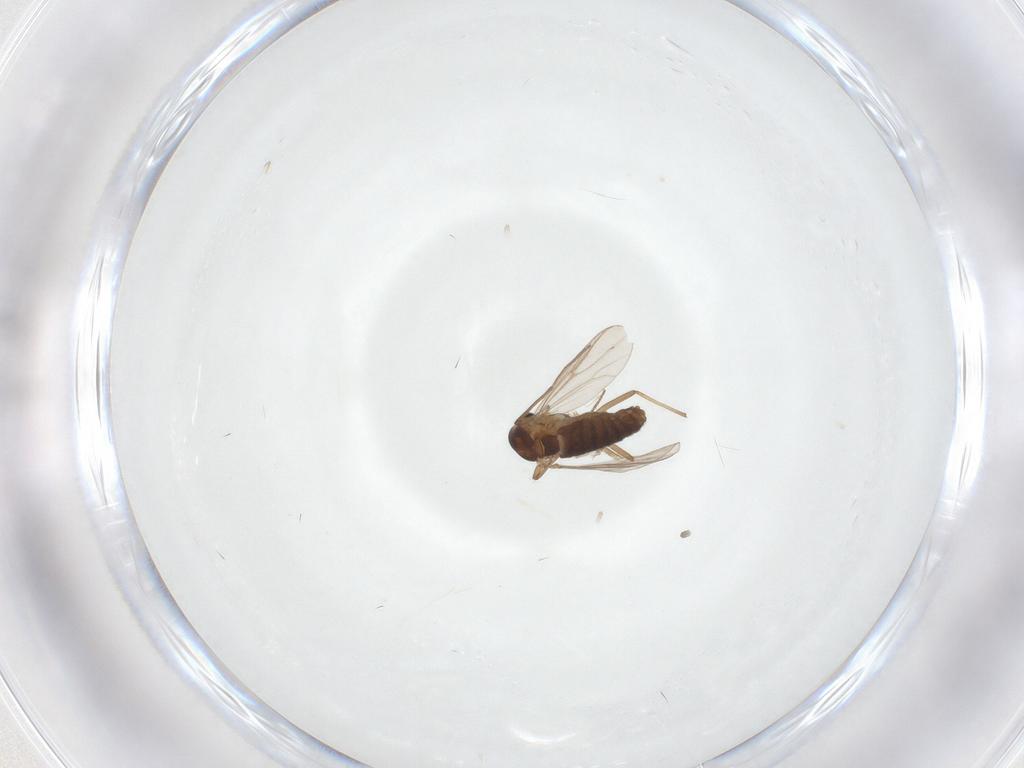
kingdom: Animalia
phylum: Arthropoda
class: Insecta
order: Diptera
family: Chironomidae
